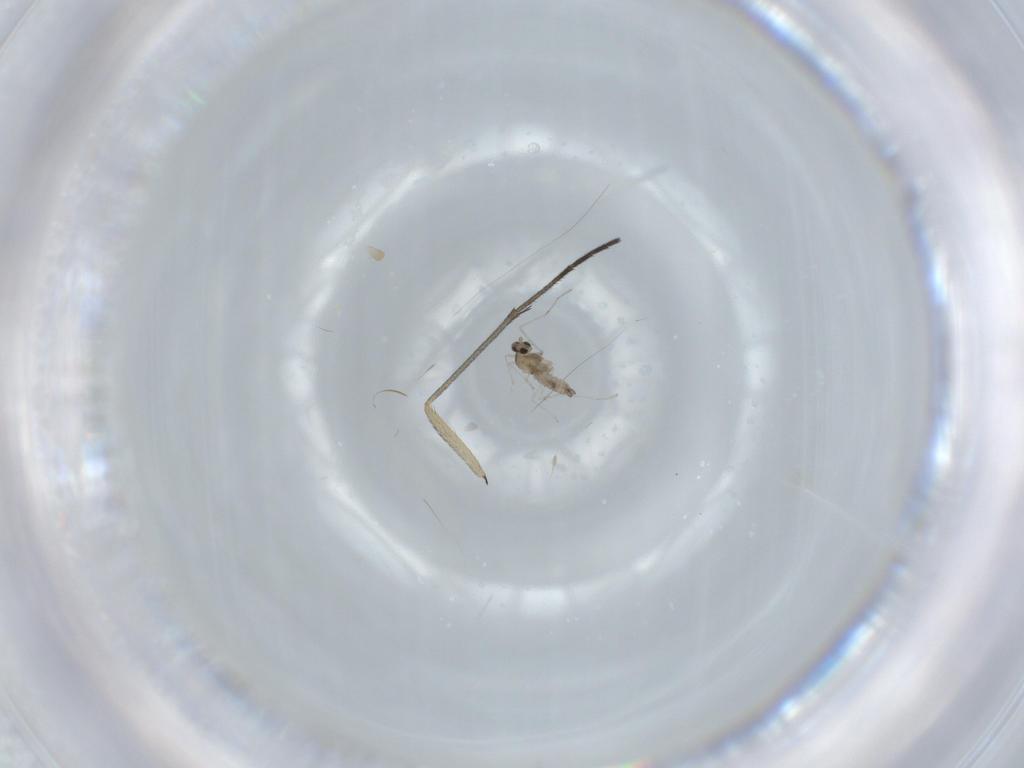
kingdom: Animalia
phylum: Arthropoda
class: Insecta
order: Diptera
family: Cecidomyiidae
